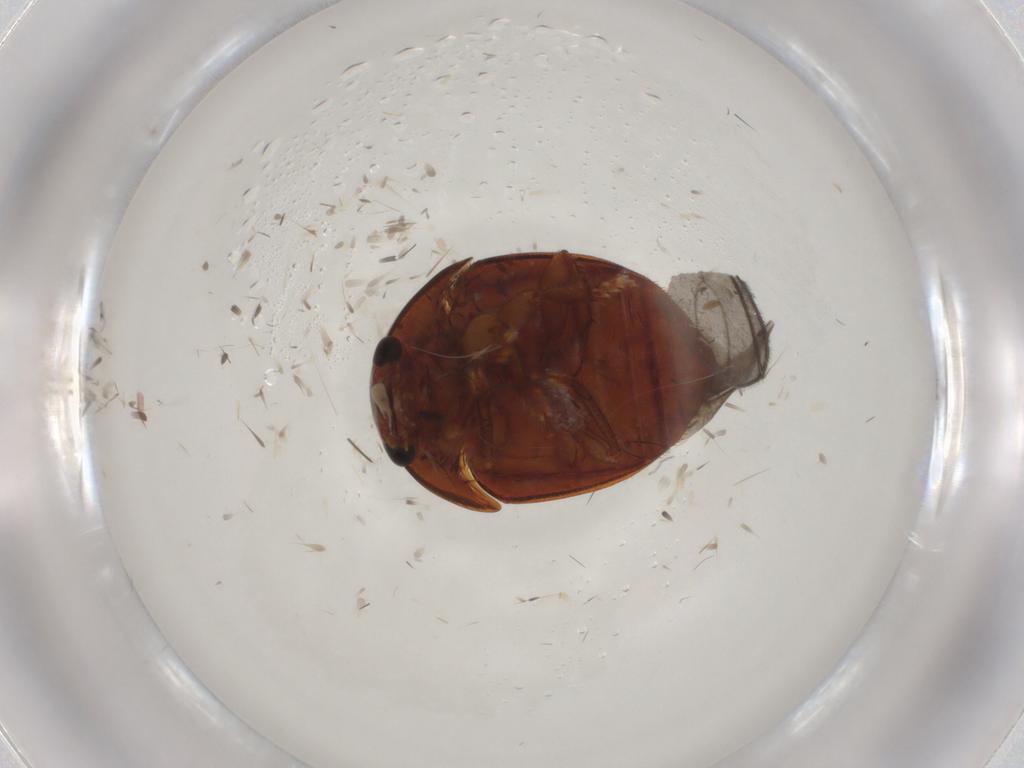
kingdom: Animalia
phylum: Arthropoda
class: Insecta
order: Coleoptera
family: Nitidulidae
